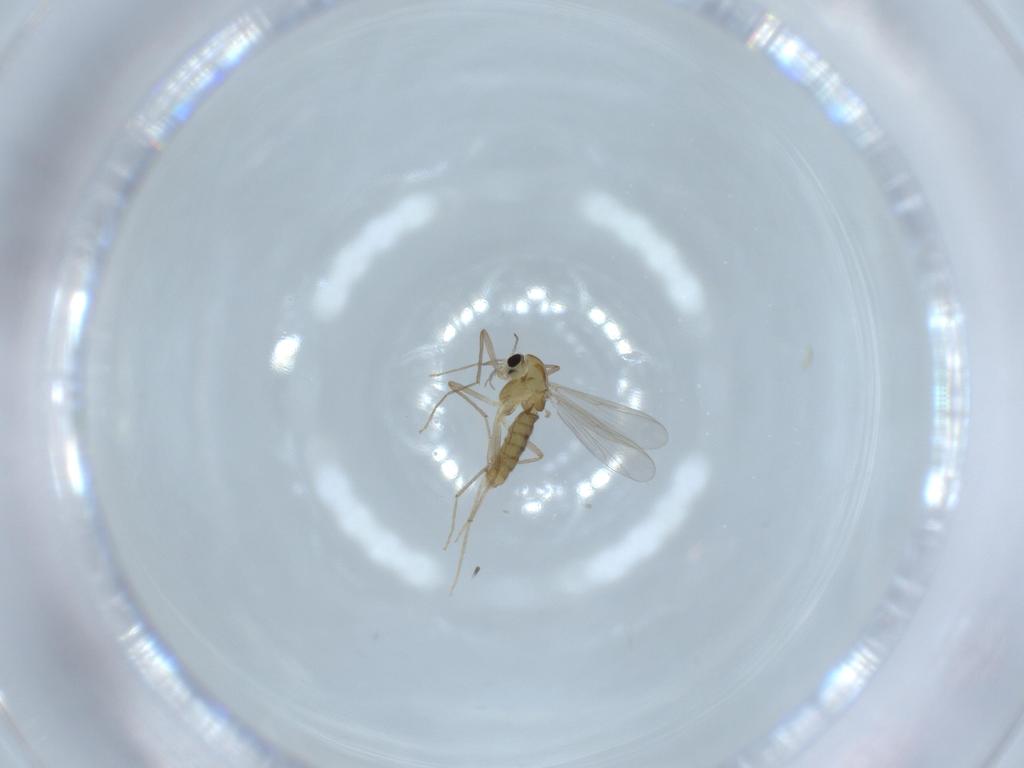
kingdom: Animalia
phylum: Arthropoda
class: Insecta
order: Diptera
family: Chironomidae
